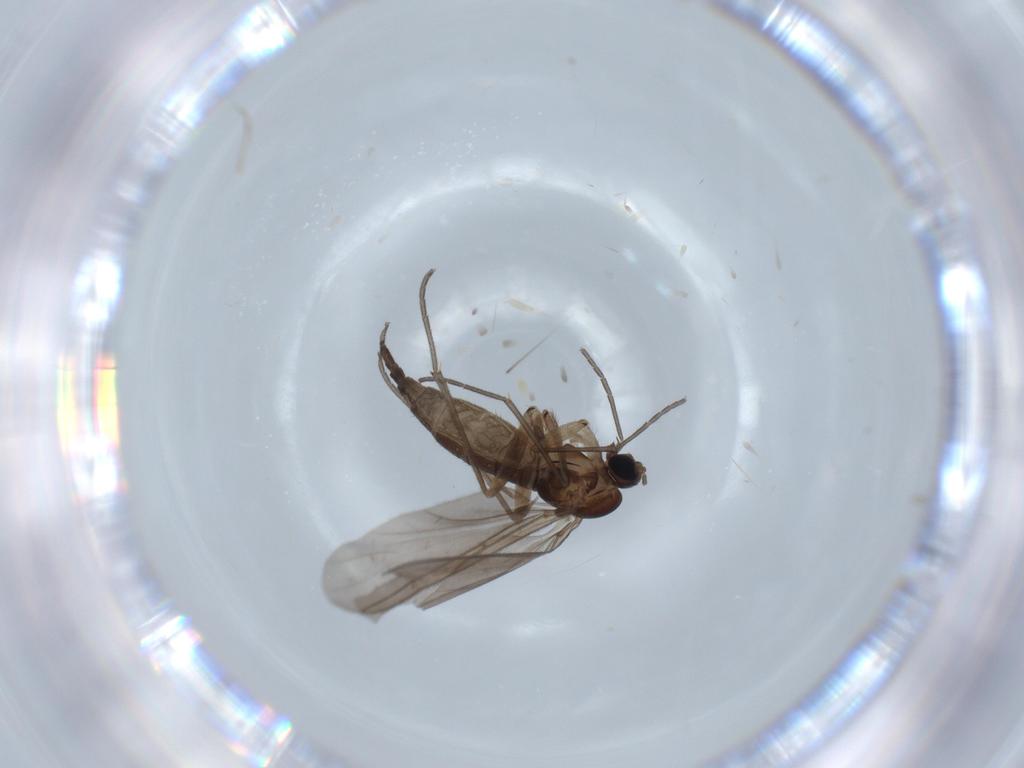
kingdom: Animalia
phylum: Arthropoda
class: Insecta
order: Diptera
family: Sciaridae
